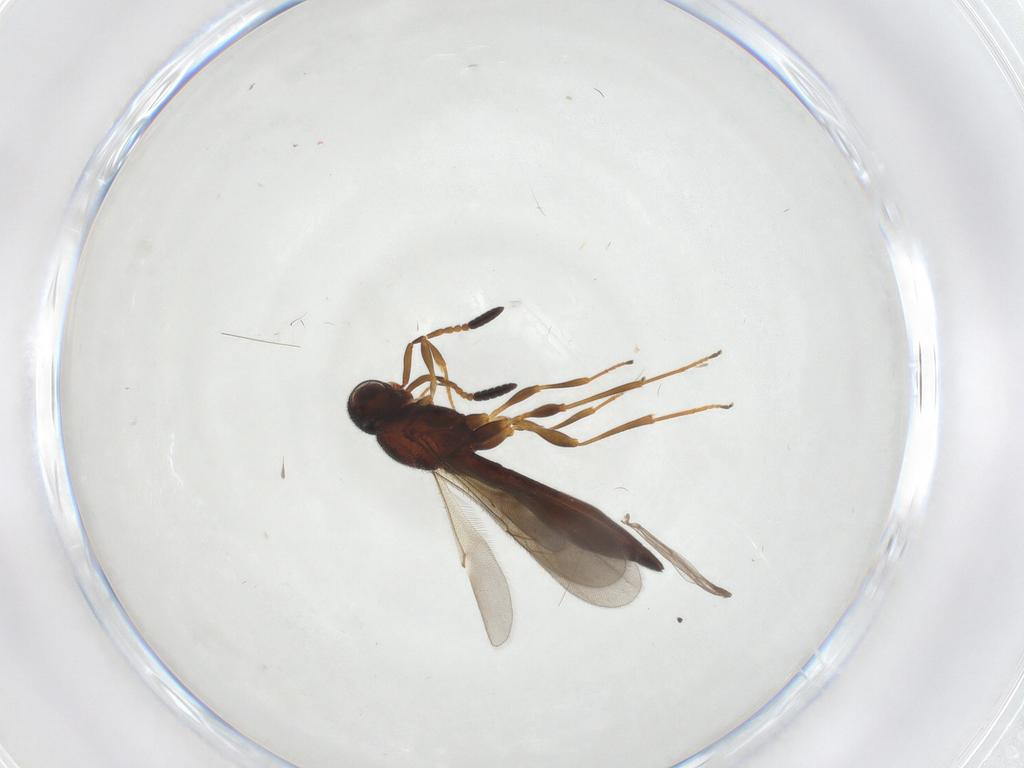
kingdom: Animalia
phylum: Arthropoda
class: Insecta
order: Hymenoptera
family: Scelionidae
